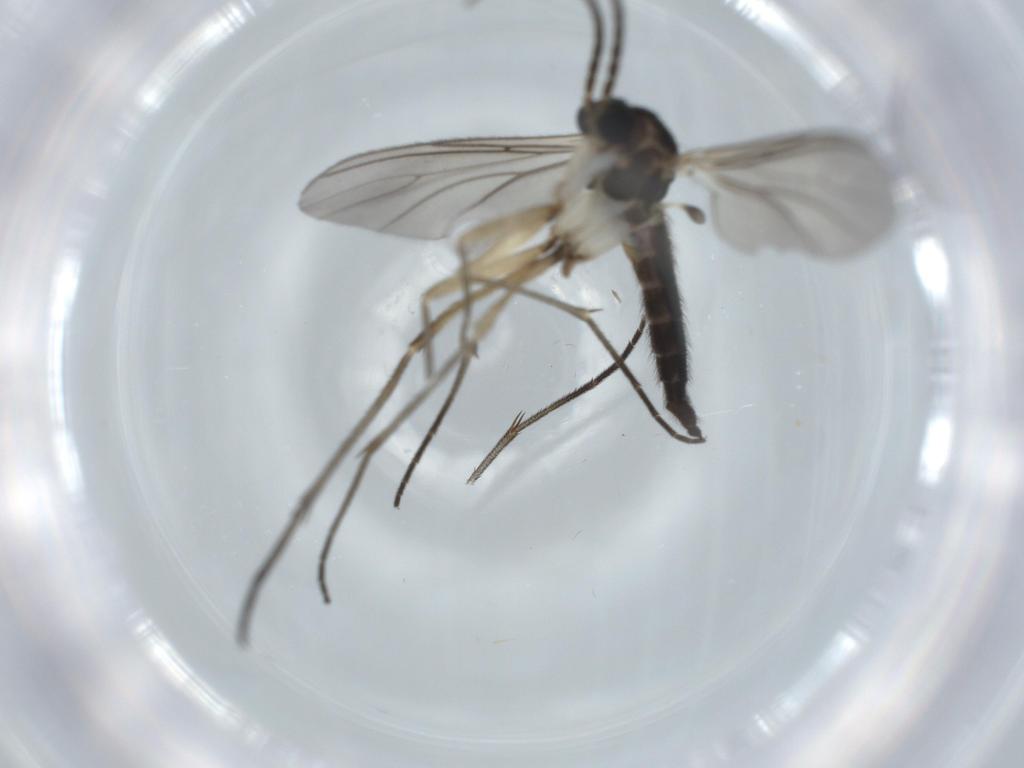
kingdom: Animalia
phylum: Arthropoda
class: Insecta
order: Diptera
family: Sciaridae
